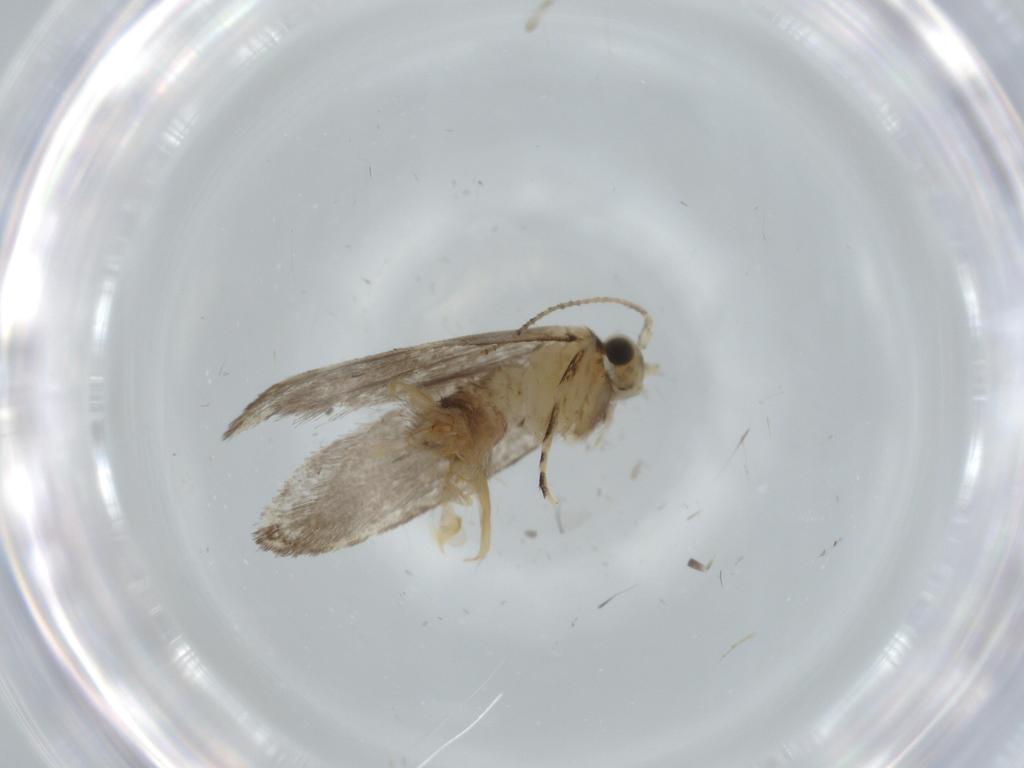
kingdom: Animalia
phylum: Arthropoda
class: Insecta
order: Lepidoptera
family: Tineidae
